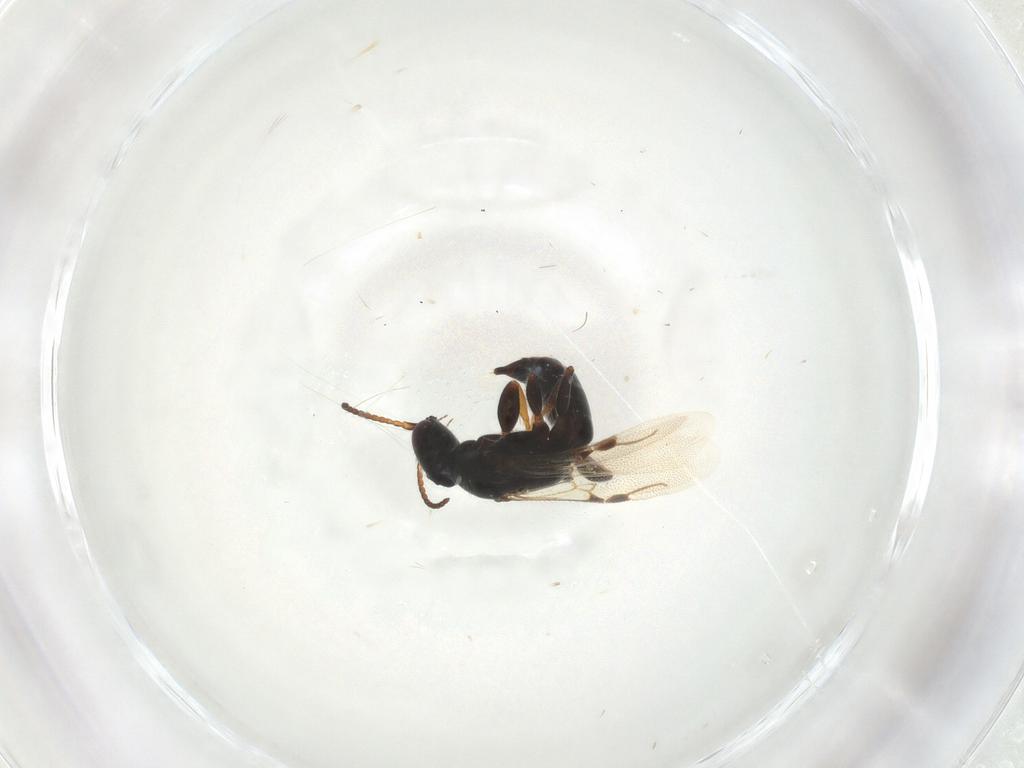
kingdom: Animalia
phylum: Arthropoda
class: Insecta
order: Hymenoptera
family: Bethylidae
